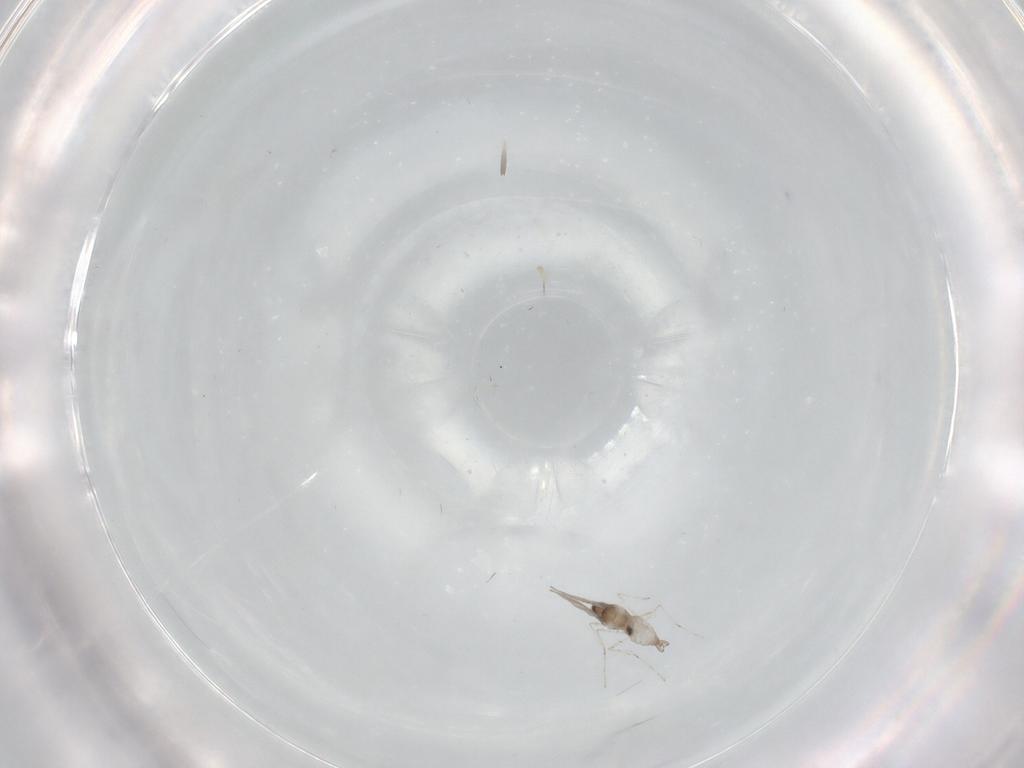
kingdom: Animalia
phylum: Arthropoda
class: Insecta
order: Diptera
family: Cecidomyiidae
